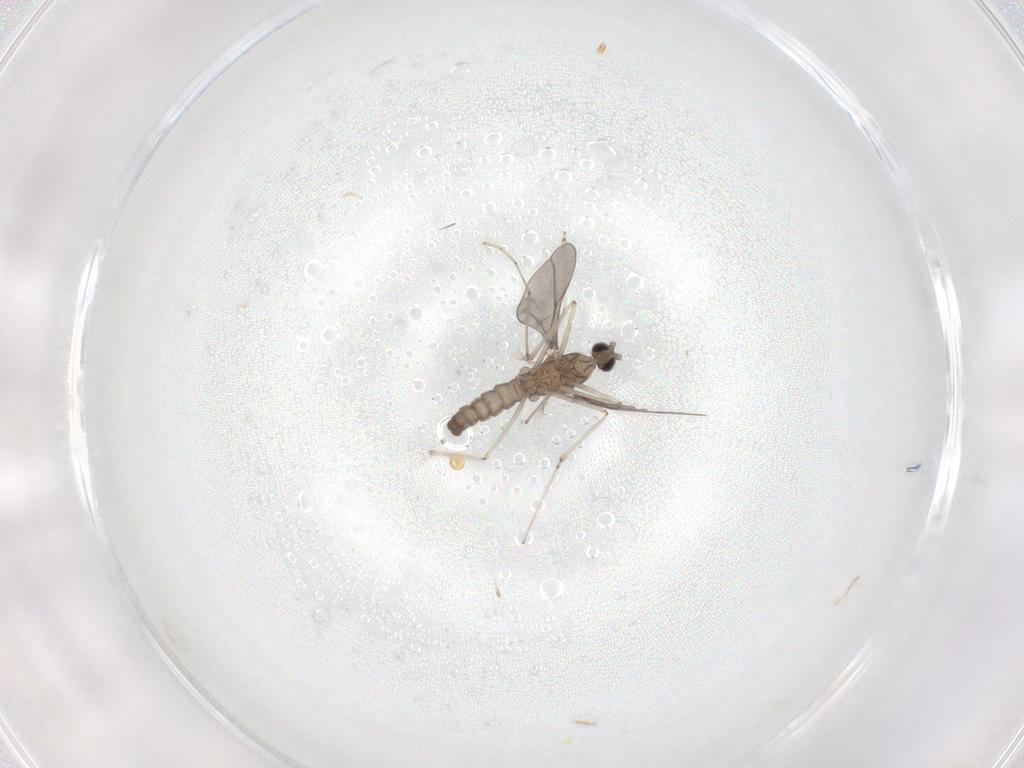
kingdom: Animalia
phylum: Arthropoda
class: Insecta
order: Diptera
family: Cecidomyiidae
